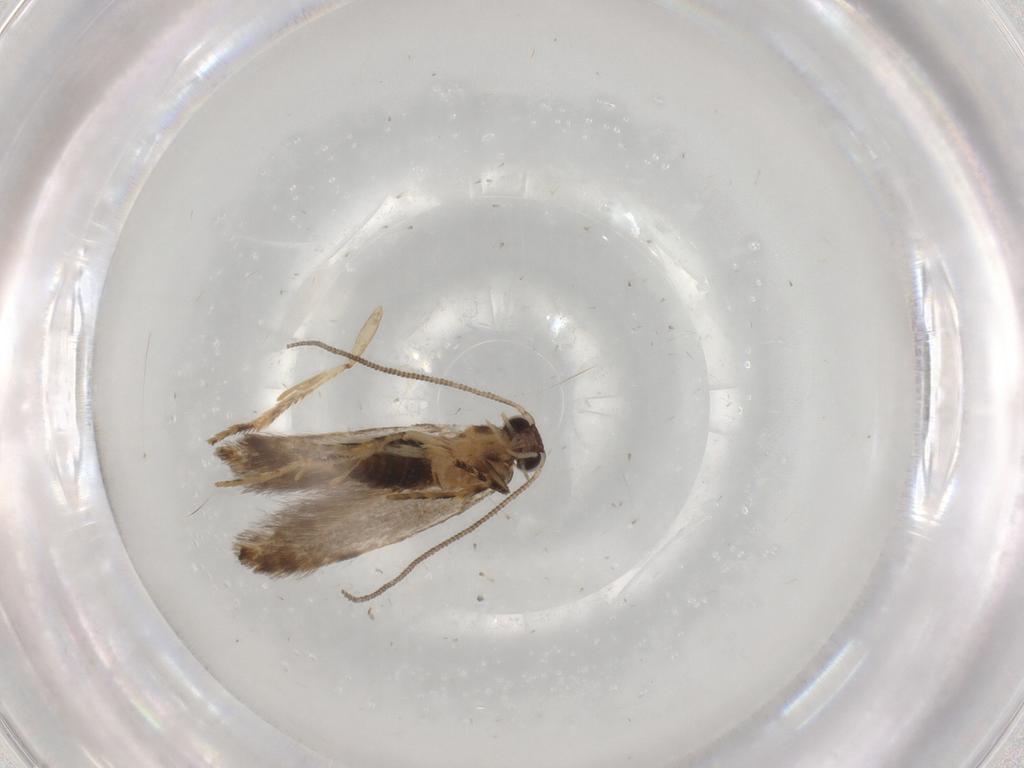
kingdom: Animalia
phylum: Arthropoda
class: Insecta
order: Lepidoptera
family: Tineidae
